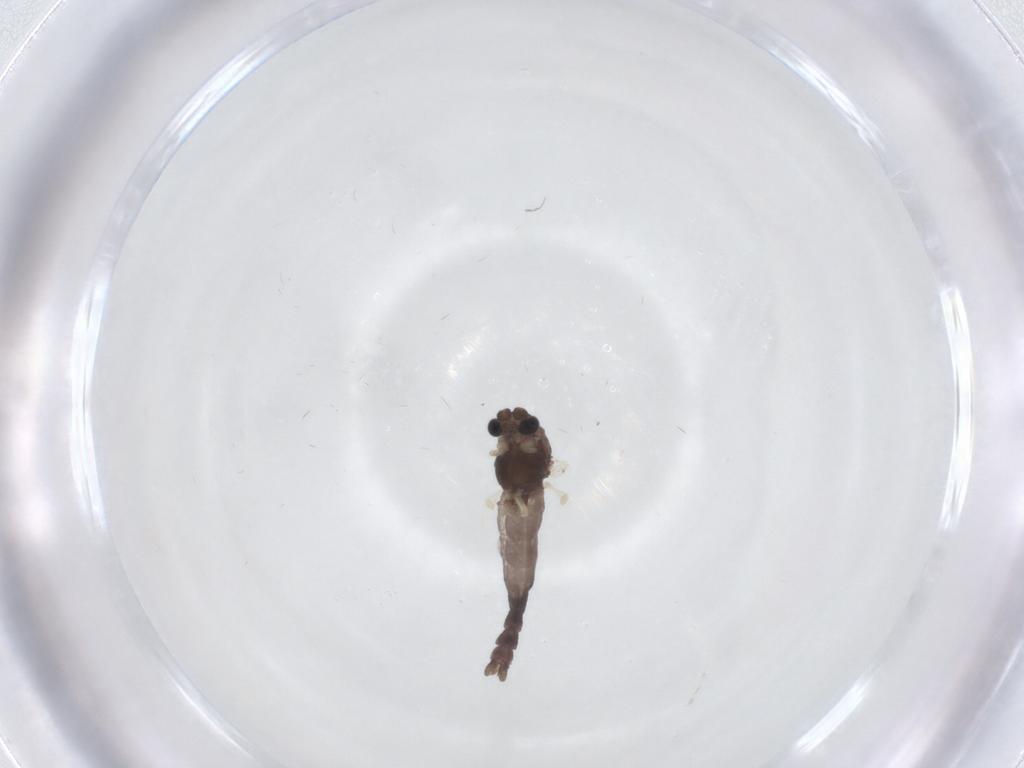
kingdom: Animalia
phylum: Arthropoda
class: Insecta
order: Diptera
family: Chironomidae
